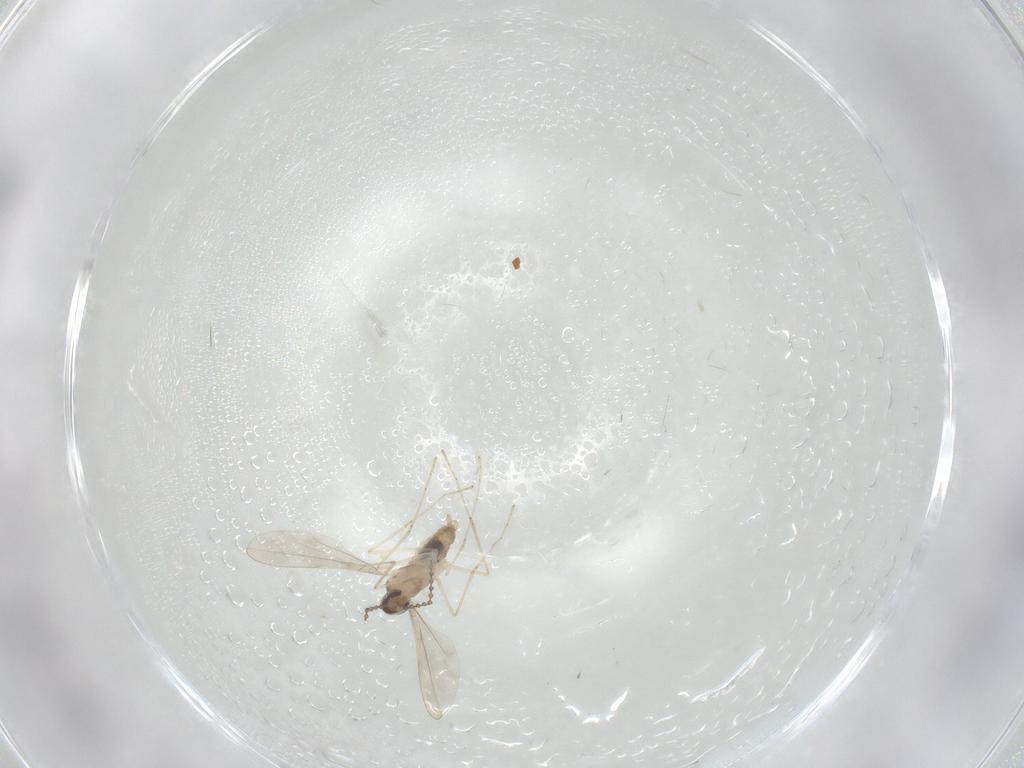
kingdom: Animalia
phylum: Arthropoda
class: Insecta
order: Diptera
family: Cecidomyiidae
